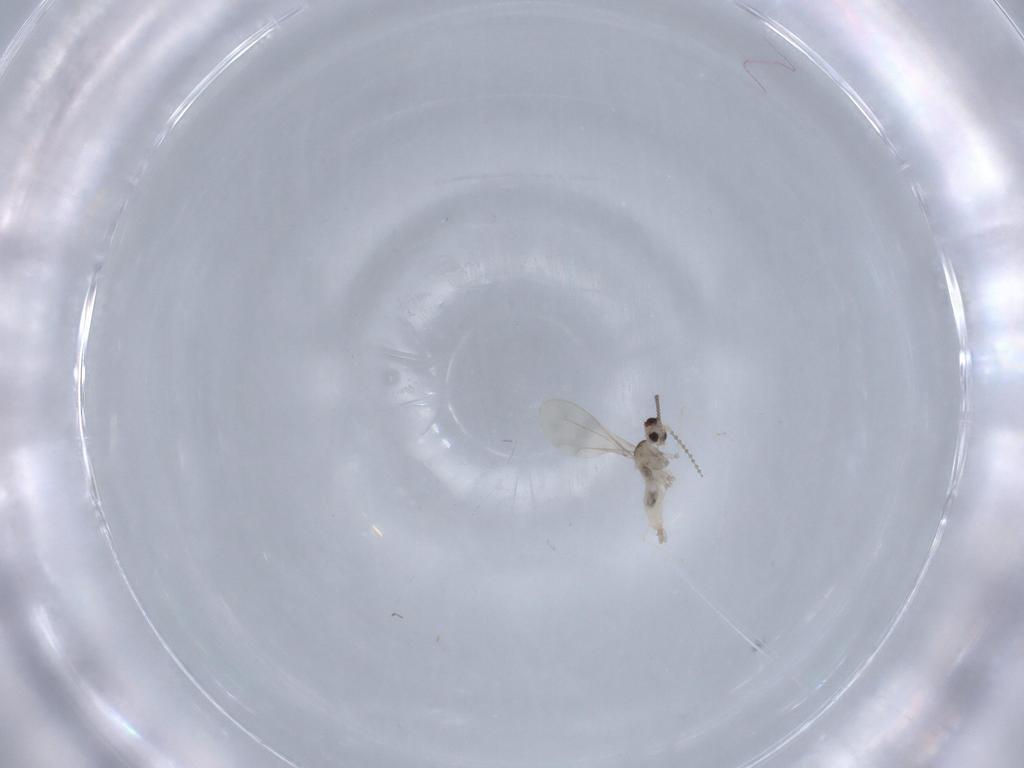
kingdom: Animalia
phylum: Arthropoda
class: Insecta
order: Diptera
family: Cecidomyiidae
